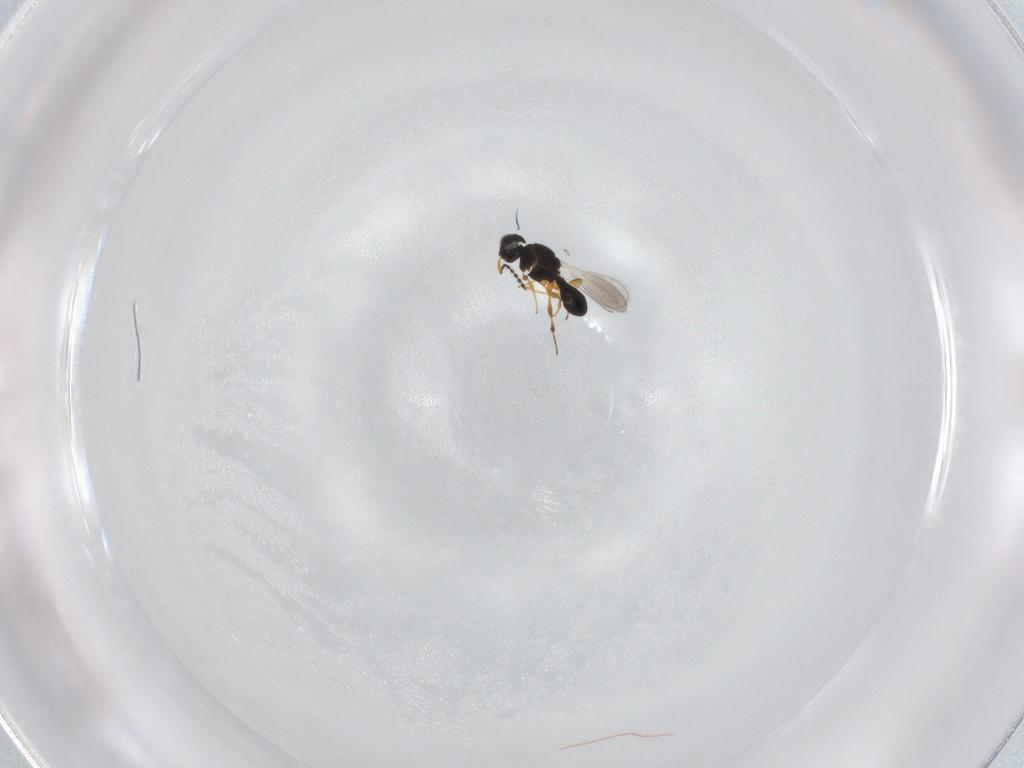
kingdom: Animalia
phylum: Arthropoda
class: Insecta
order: Hymenoptera
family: Platygastridae
